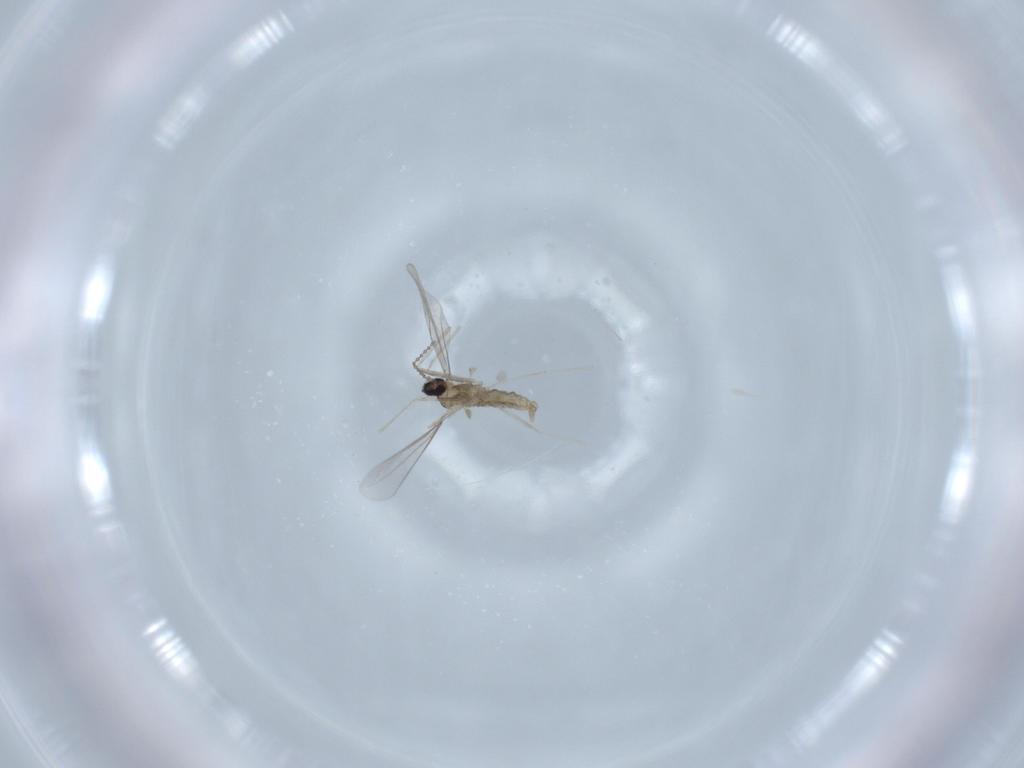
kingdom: Animalia
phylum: Arthropoda
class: Insecta
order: Diptera
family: Cecidomyiidae
